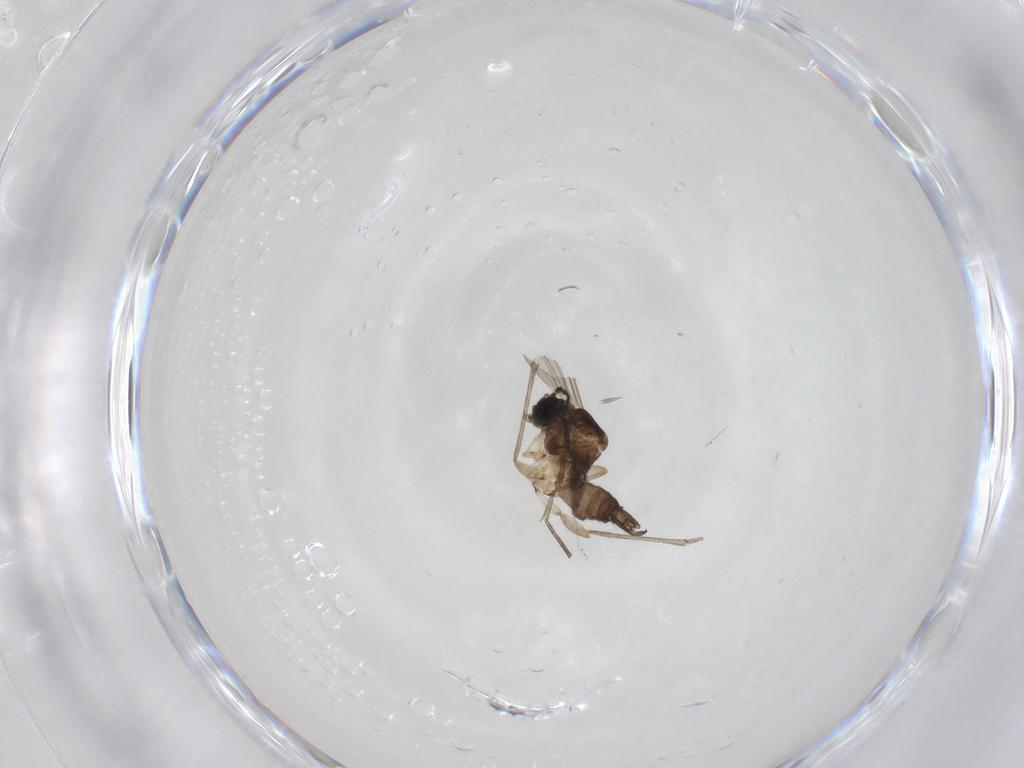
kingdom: Animalia
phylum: Arthropoda
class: Insecta
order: Diptera
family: Sciaridae
